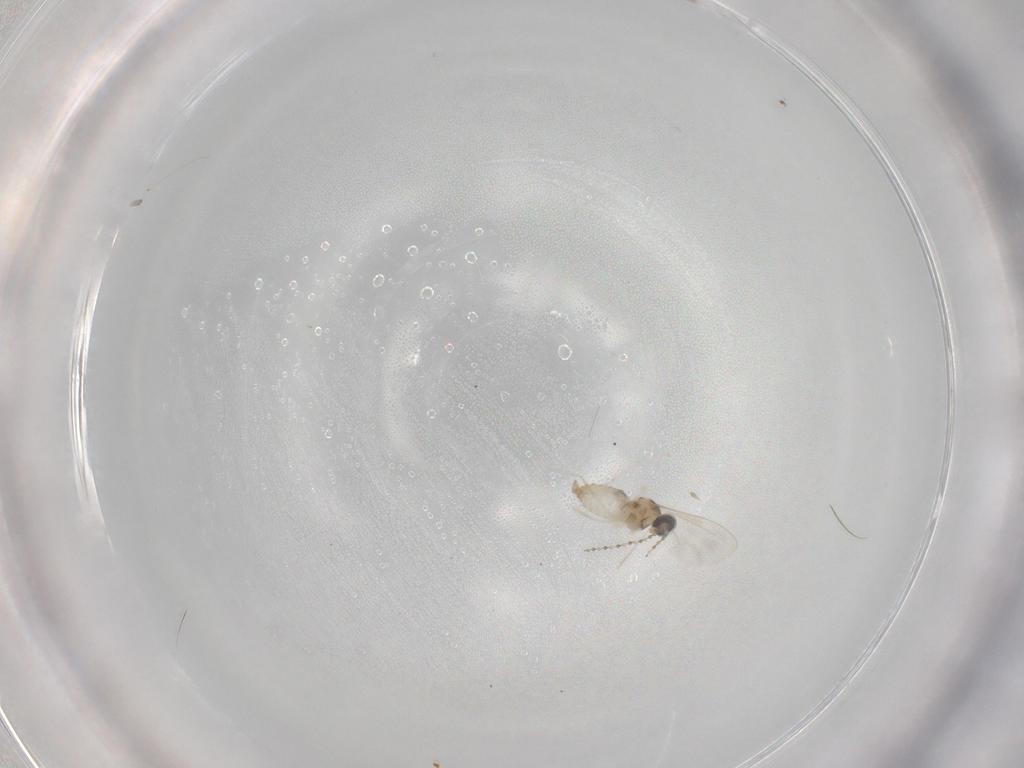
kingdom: Animalia
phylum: Arthropoda
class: Insecta
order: Diptera
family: Cecidomyiidae
